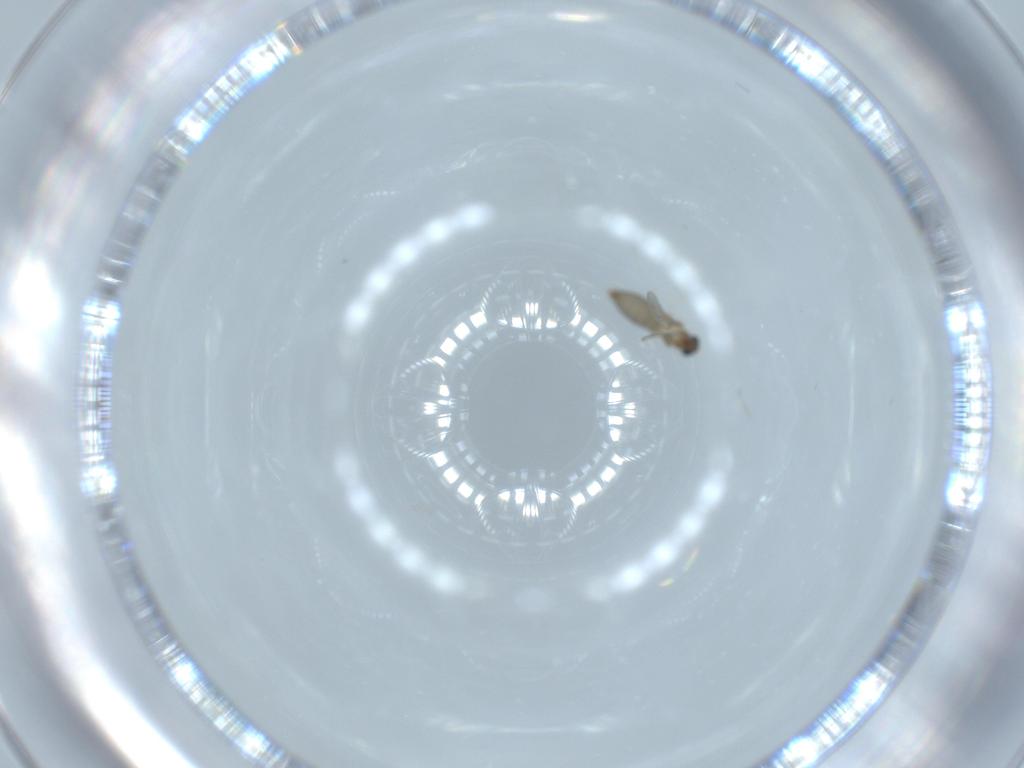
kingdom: Animalia
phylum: Arthropoda
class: Insecta
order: Diptera
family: Cecidomyiidae
